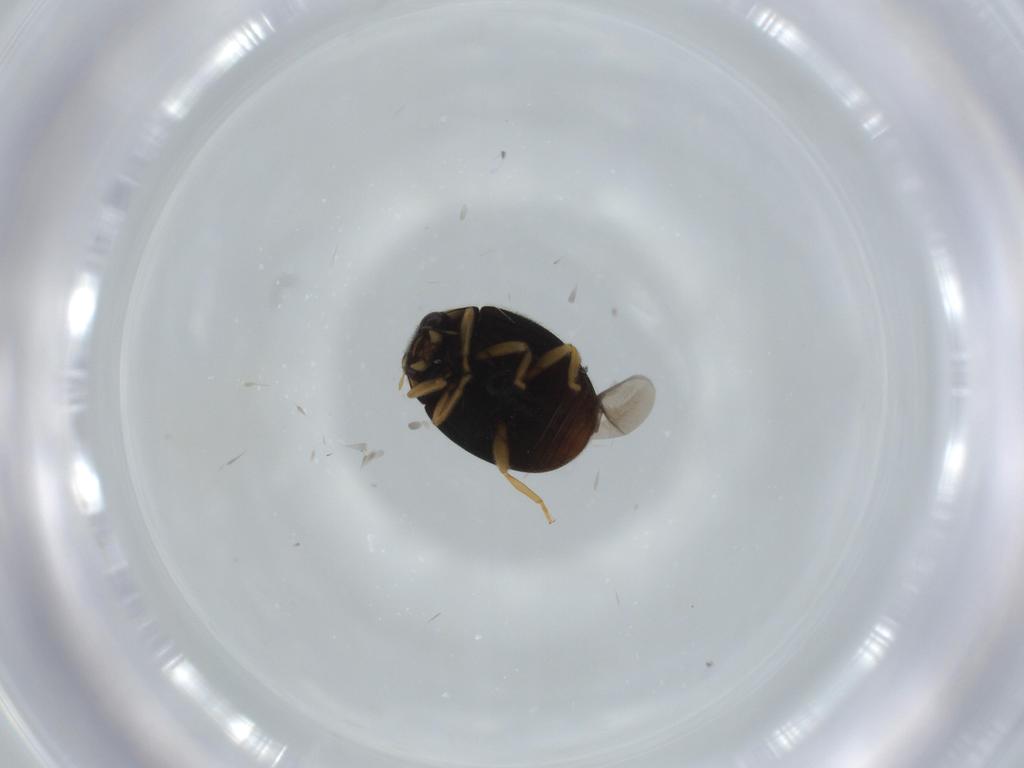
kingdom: Animalia
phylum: Arthropoda
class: Insecta
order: Coleoptera
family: Coccinellidae
